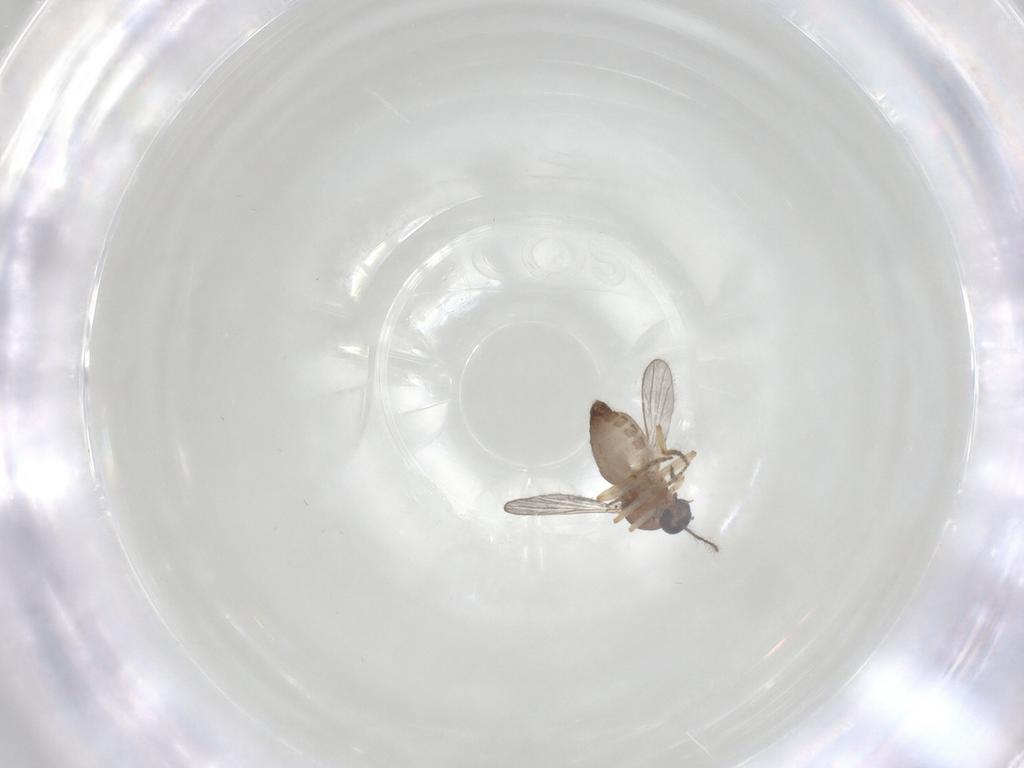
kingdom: Animalia
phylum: Arthropoda
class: Insecta
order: Diptera
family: Ceratopogonidae
